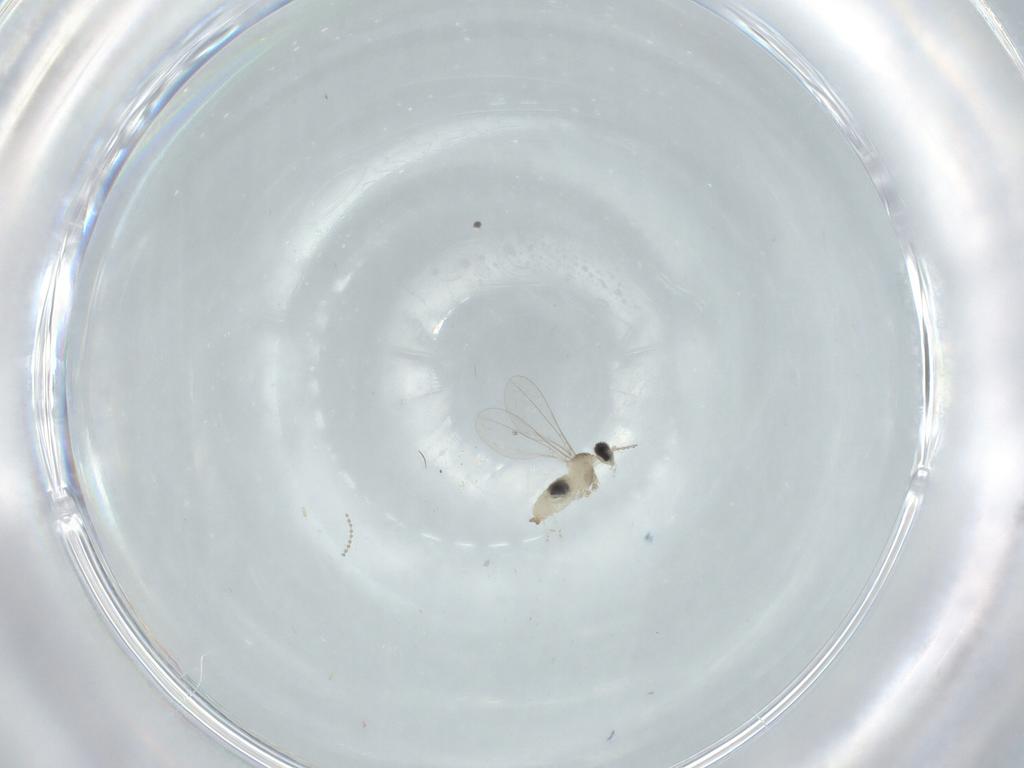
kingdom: Animalia
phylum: Arthropoda
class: Insecta
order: Diptera
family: Cecidomyiidae
